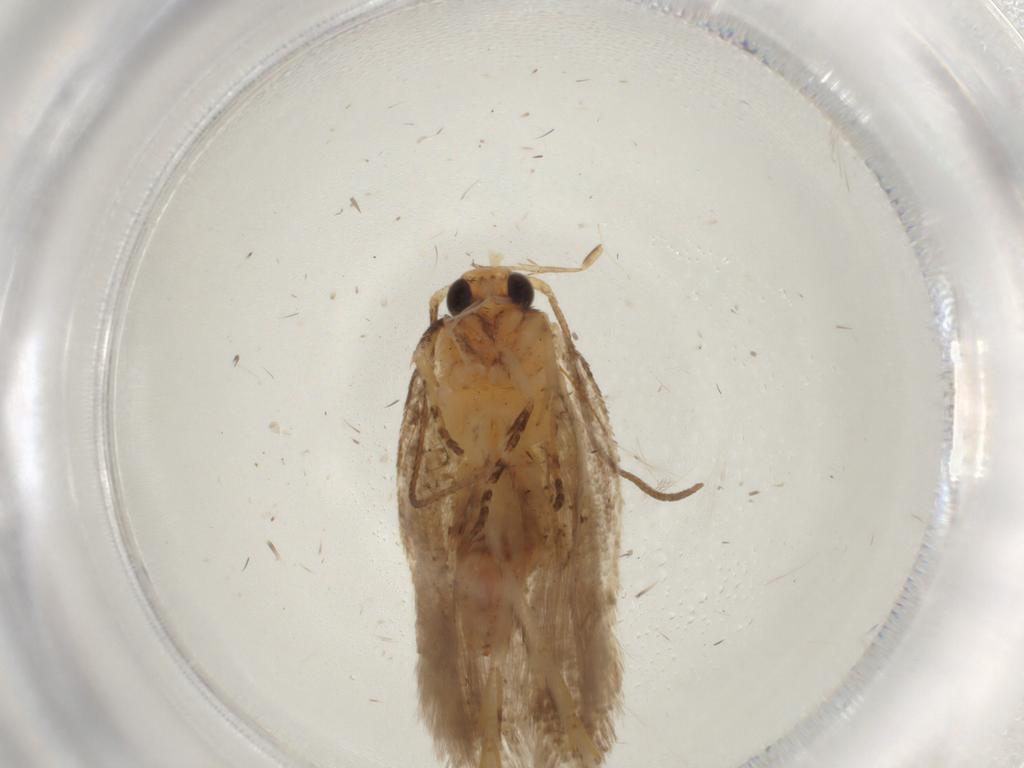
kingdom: Animalia
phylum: Arthropoda
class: Insecta
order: Lepidoptera
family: Gelechiidae
